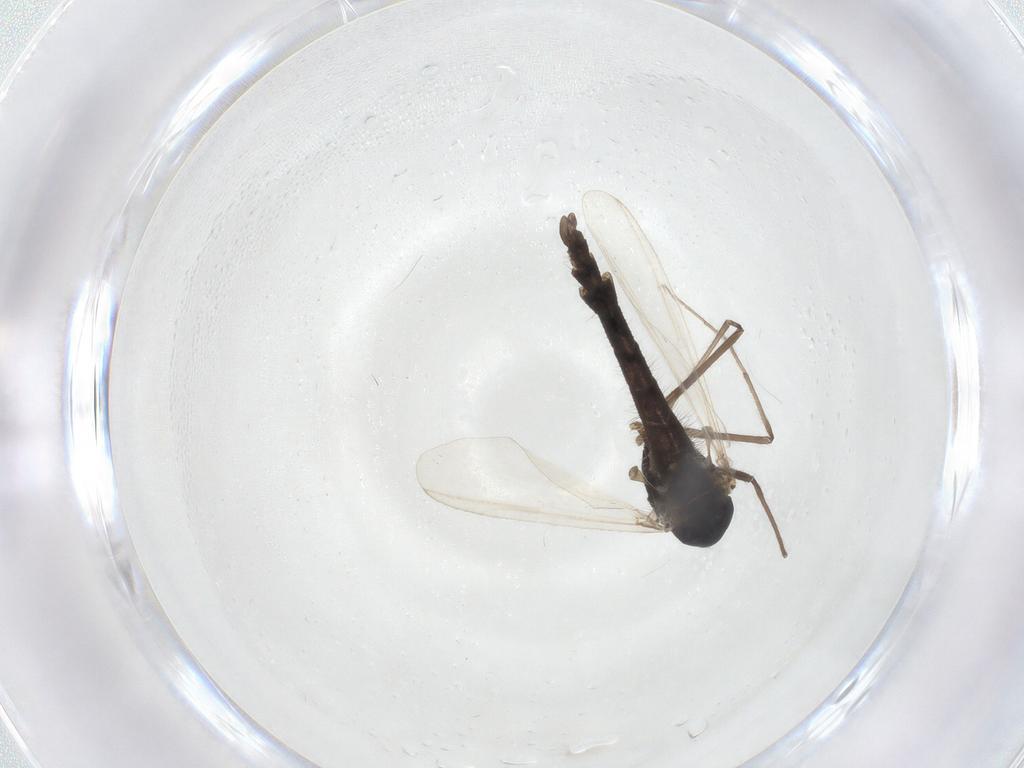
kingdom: Animalia
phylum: Arthropoda
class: Insecta
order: Diptera
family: Chironomidae
